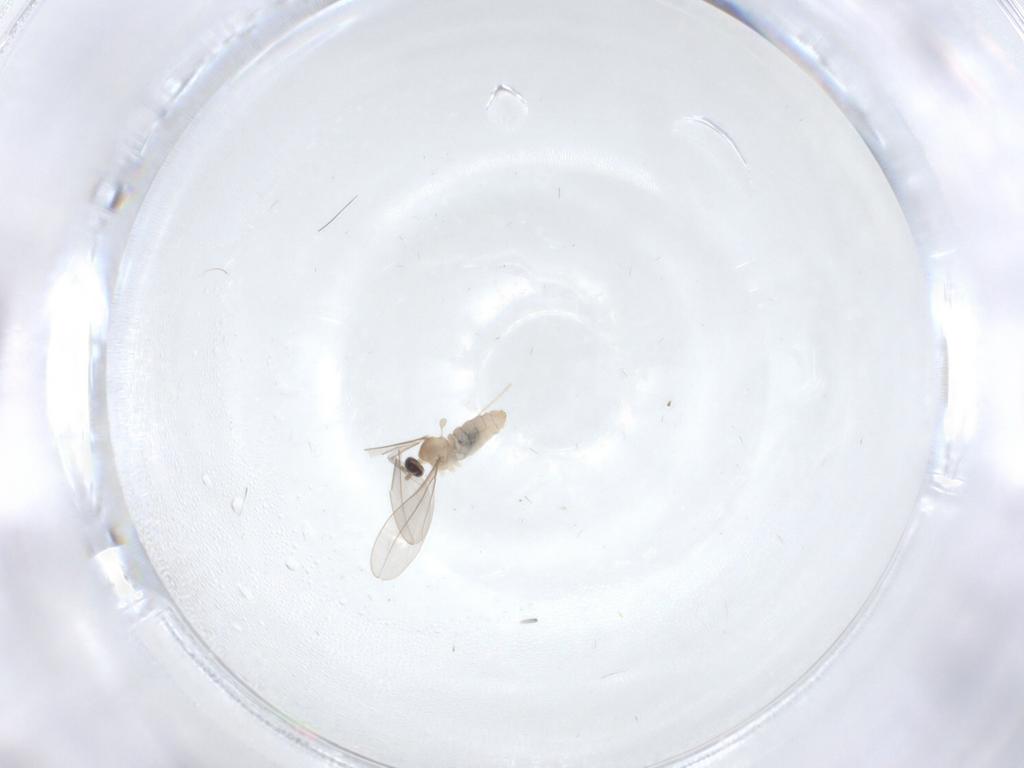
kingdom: Animalia
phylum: Arthropoda
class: Insecta
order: Diptera
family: Cecidomyiidae
